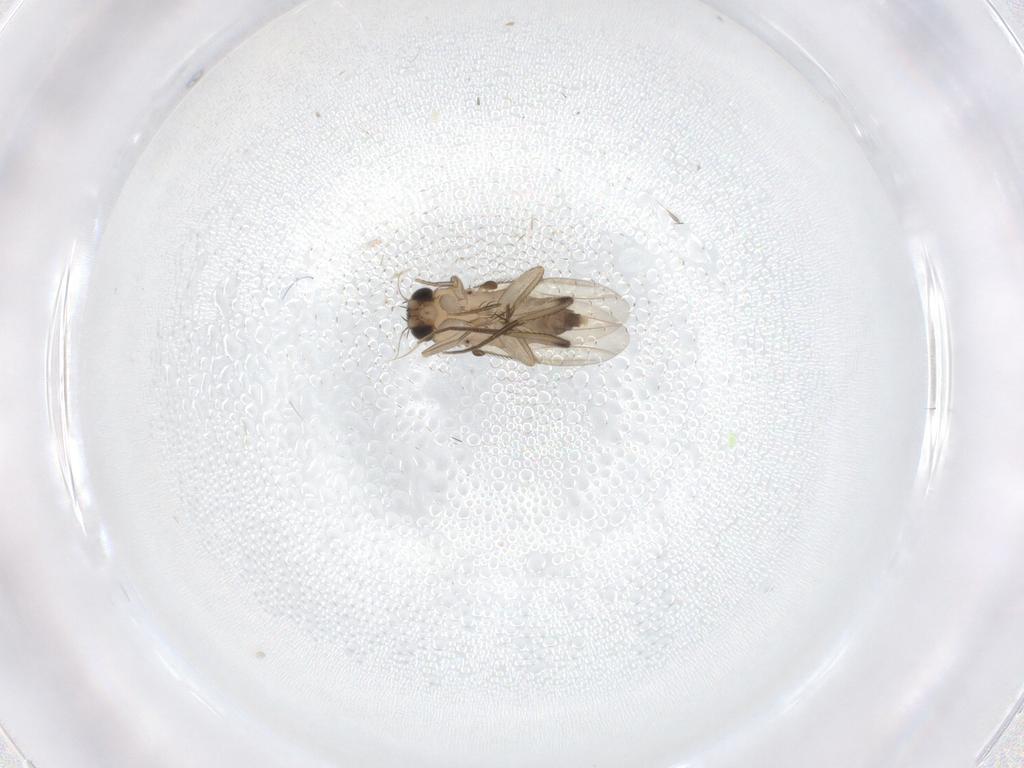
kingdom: Animalia
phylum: Arthropoda
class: Insecta
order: Diptera
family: Phoridae
